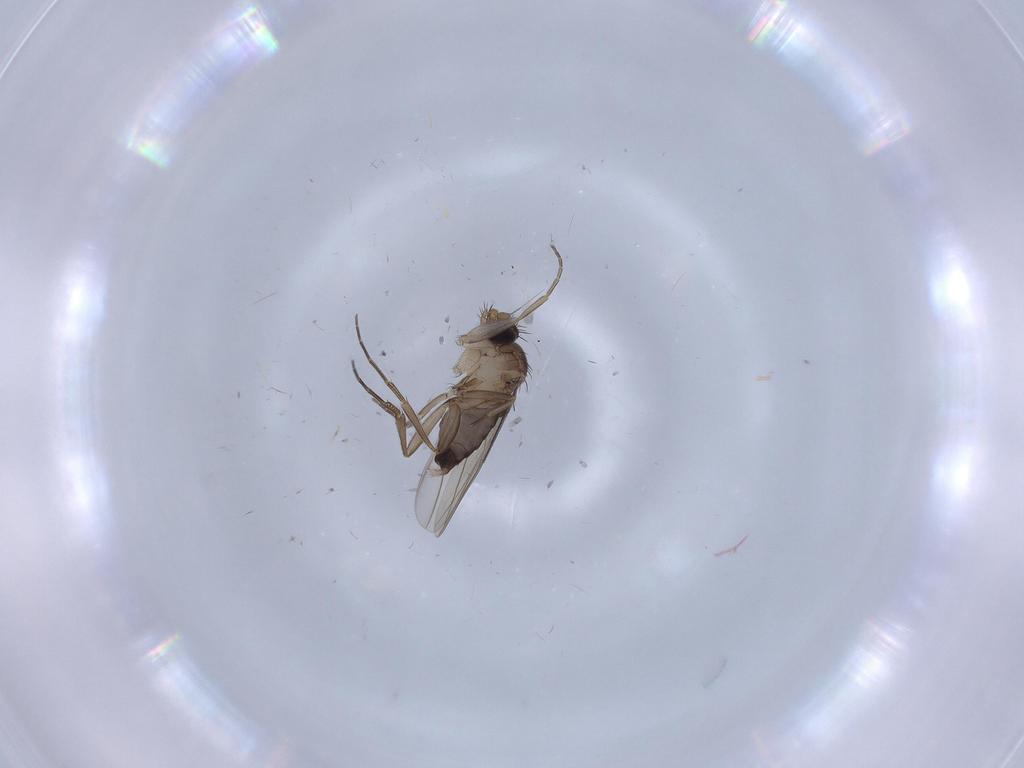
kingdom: Animalia
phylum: Arthropoda
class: Insecta
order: Diptera
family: Phoridae
